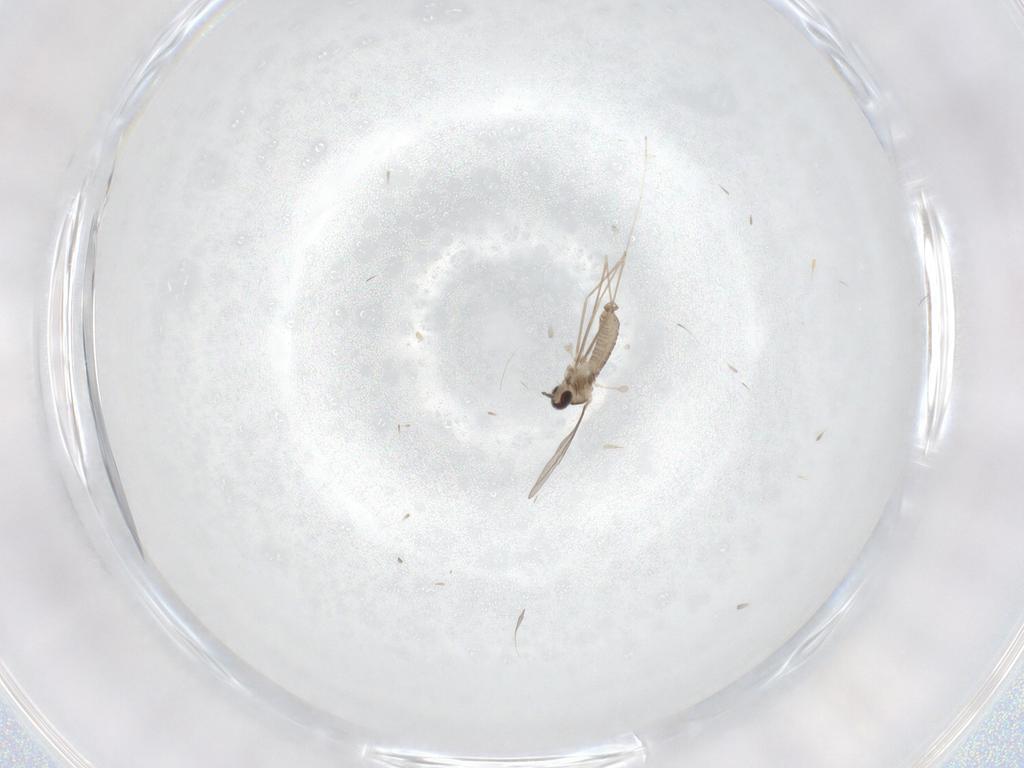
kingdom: Animalia
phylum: Arthropoda
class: Insecta
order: Diptera
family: Cecidomyiidae
